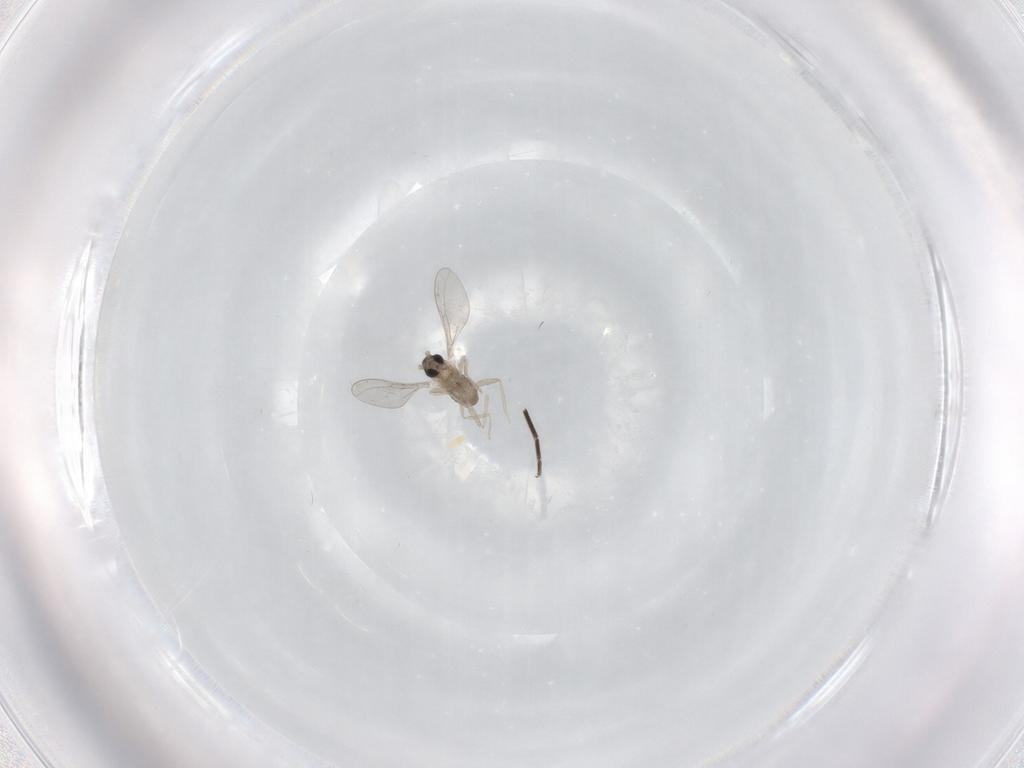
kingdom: Animalia
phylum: Arthropoda
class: Insecta
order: Diptera
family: Cecidomyiidae
